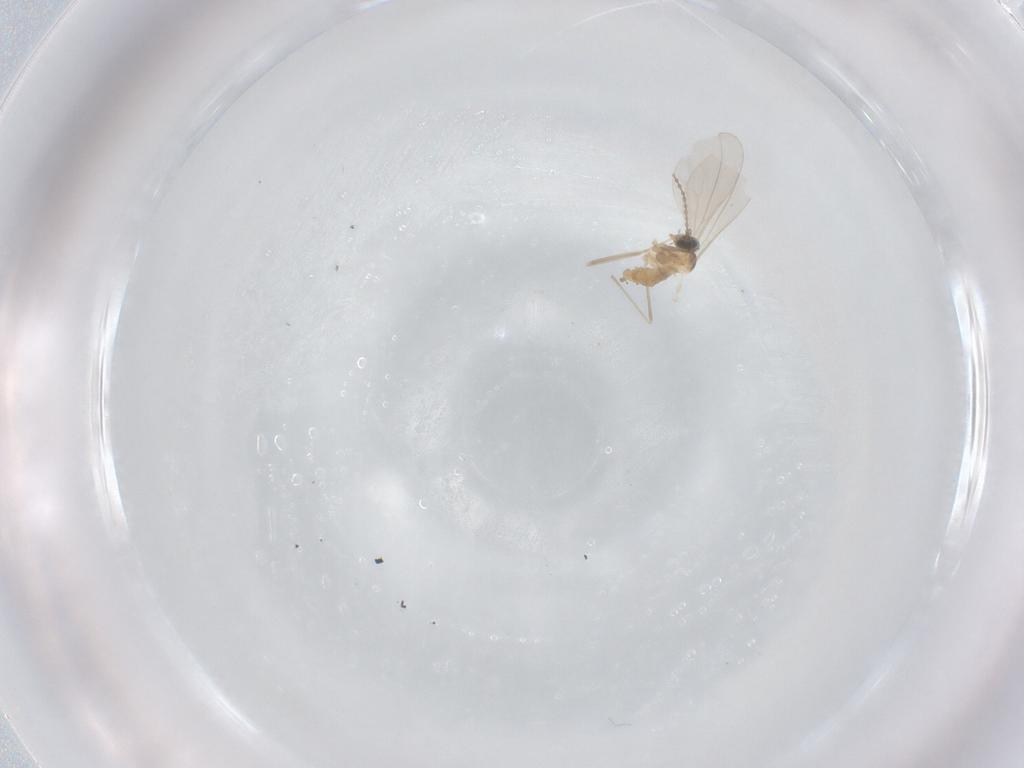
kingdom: Animalia
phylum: Arthropoda
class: Insecta
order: Diptera
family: Cecidomyiidae
